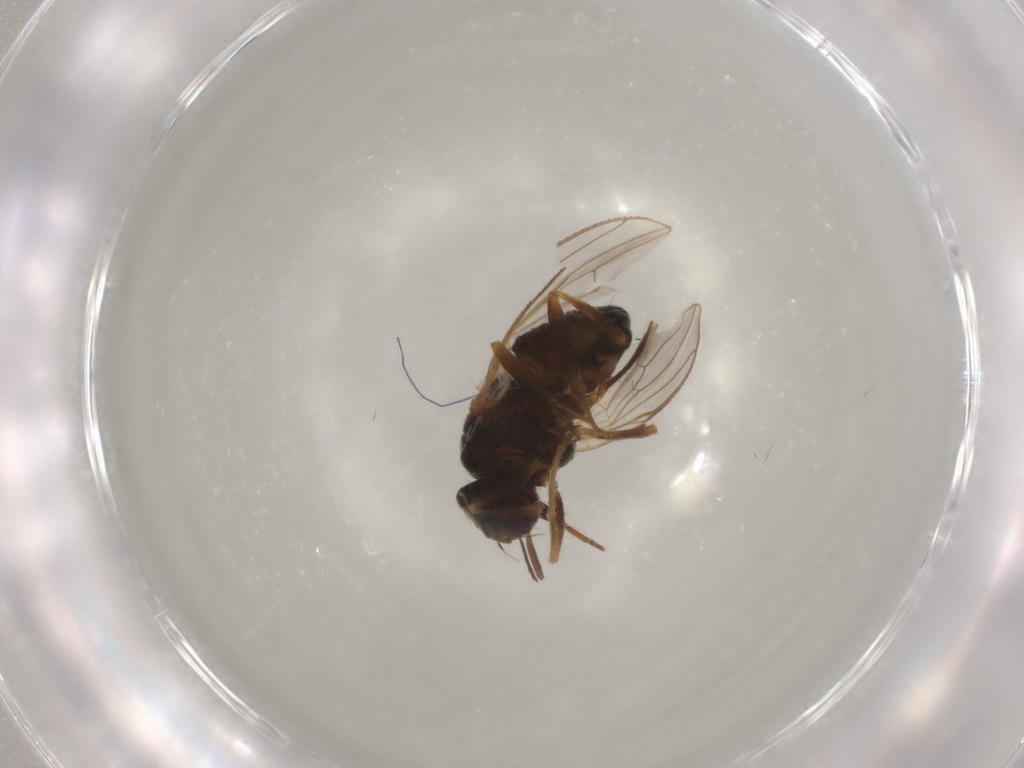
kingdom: Animalia
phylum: Arthropoda
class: Insecta
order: Diptera
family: Muscidae
